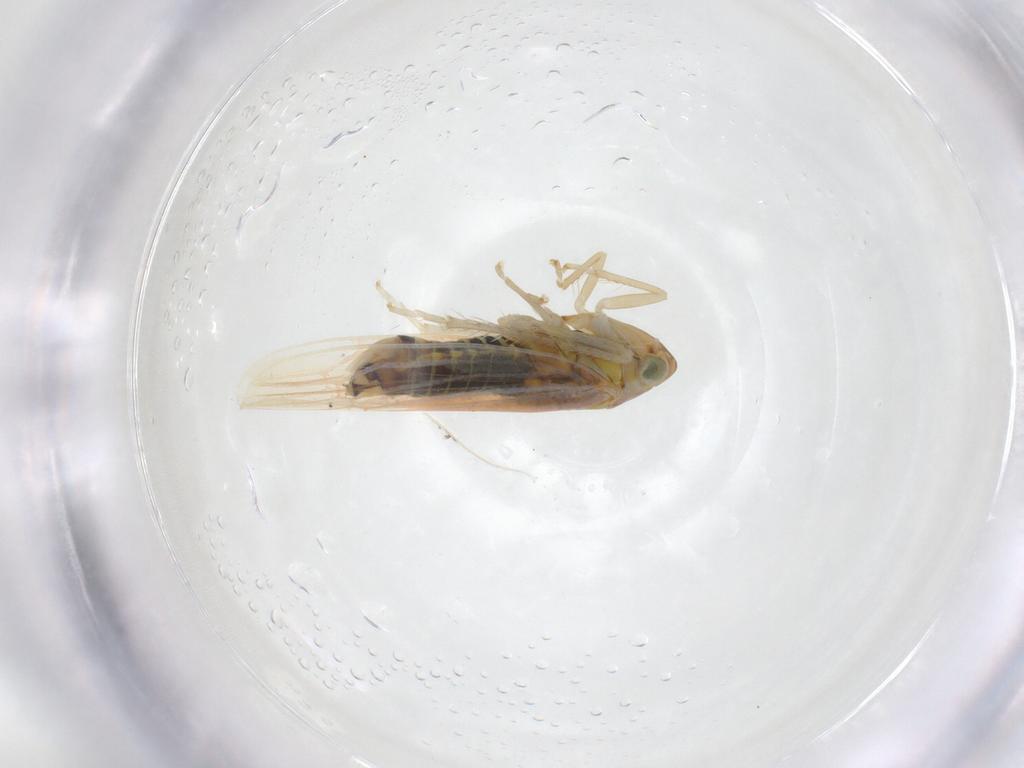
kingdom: Animalia
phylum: Arthropoda
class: Insecta
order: Hemiptera
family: Cicadellidae
